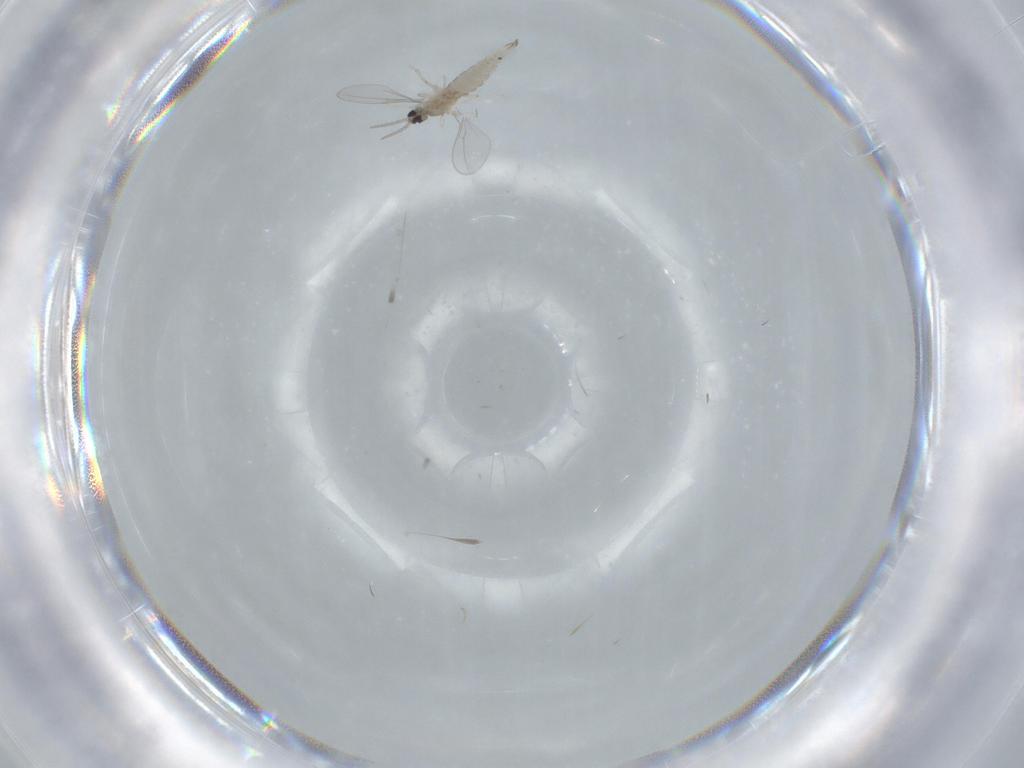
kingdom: Animalia
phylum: Arthropoda
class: Insecta
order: Diptera
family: Cecidomyiidae
